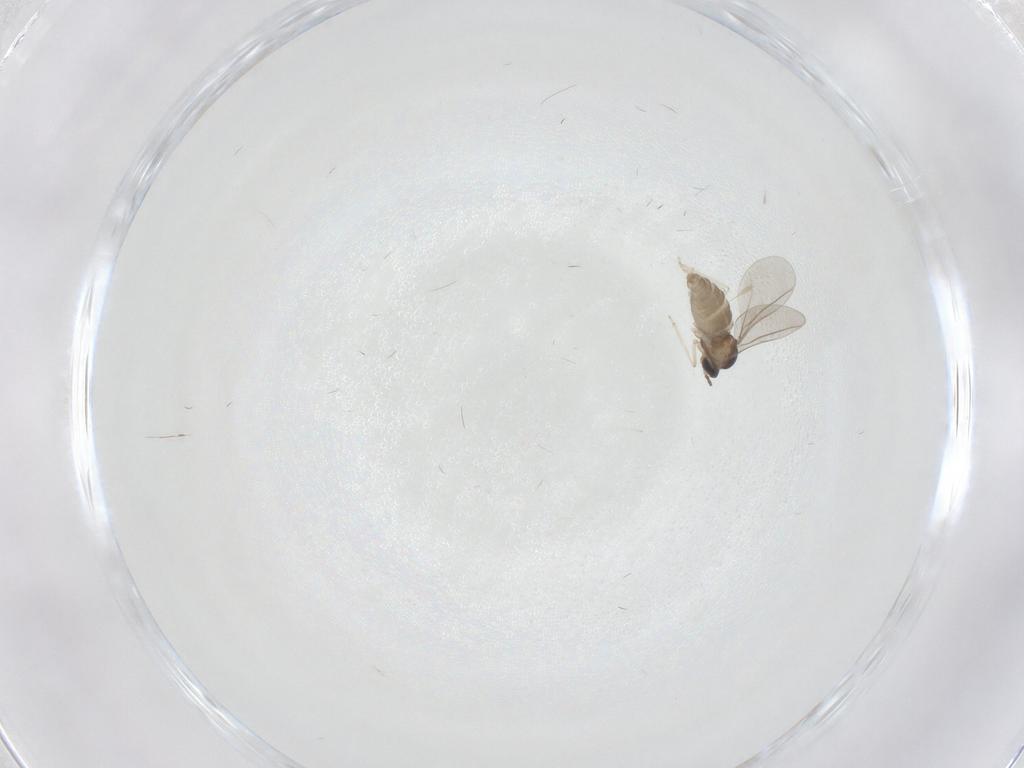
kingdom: Animalia
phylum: Arthropoda
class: Insecta
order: Diptera
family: Cecidomyiidae
